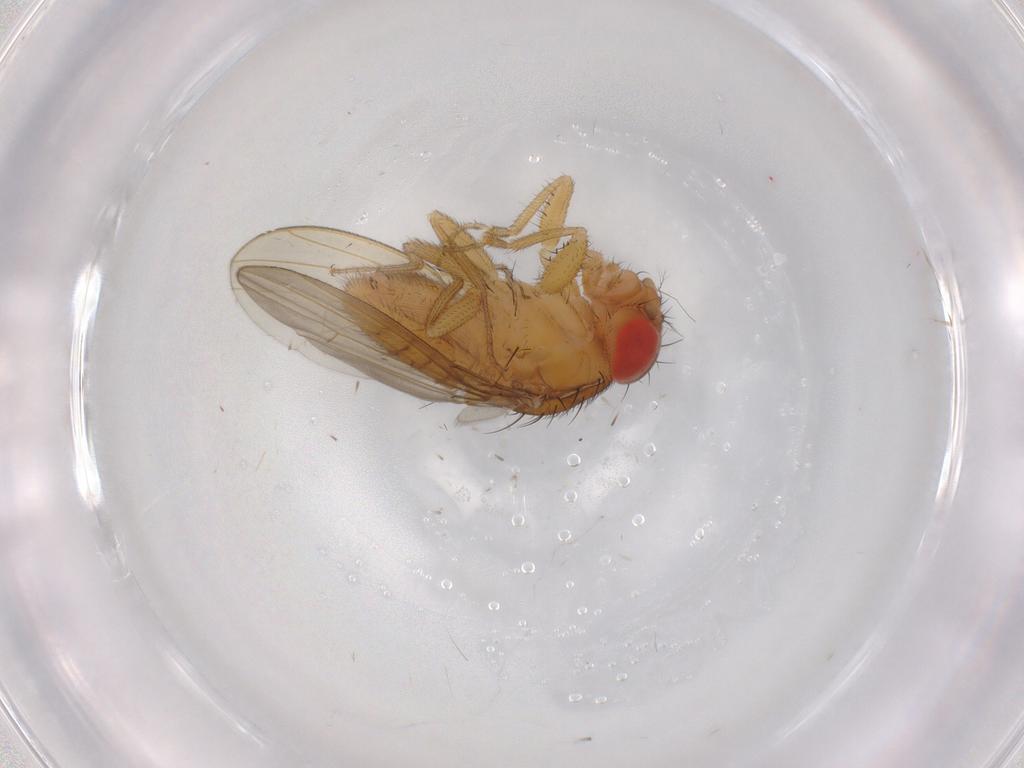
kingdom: Animalia
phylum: Arthropoda
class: Insecta
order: Diptera
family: Drosophilidae
